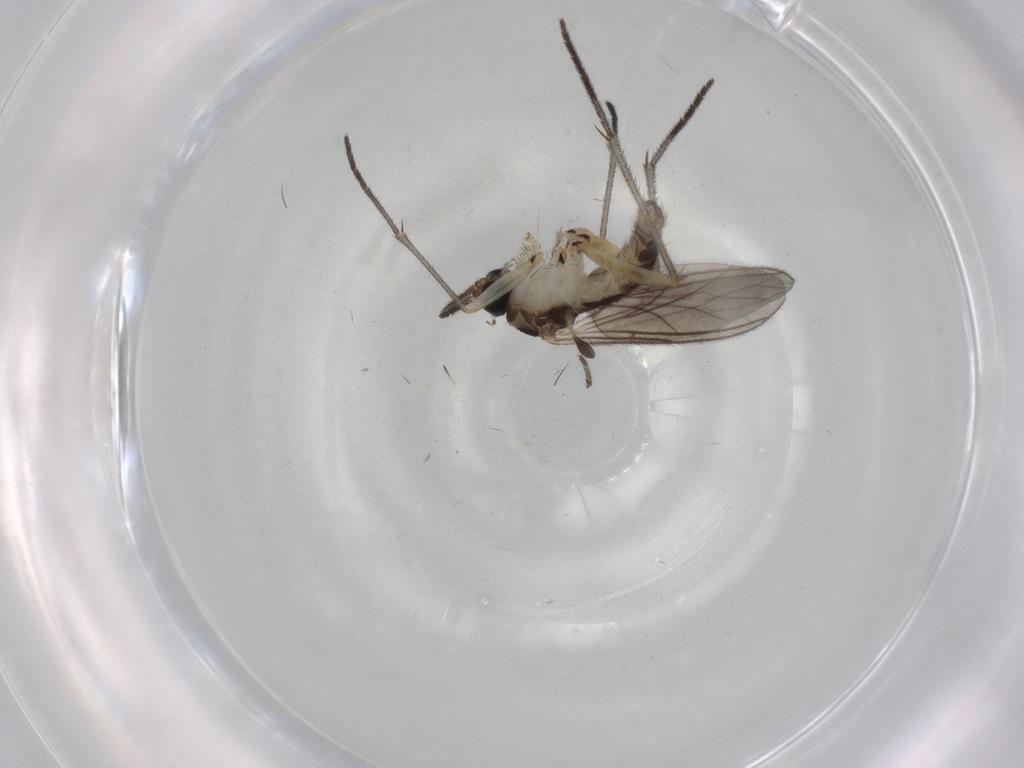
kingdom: Animalia
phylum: Arthropoda
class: Insecta
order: Diptera
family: Sciaridae
